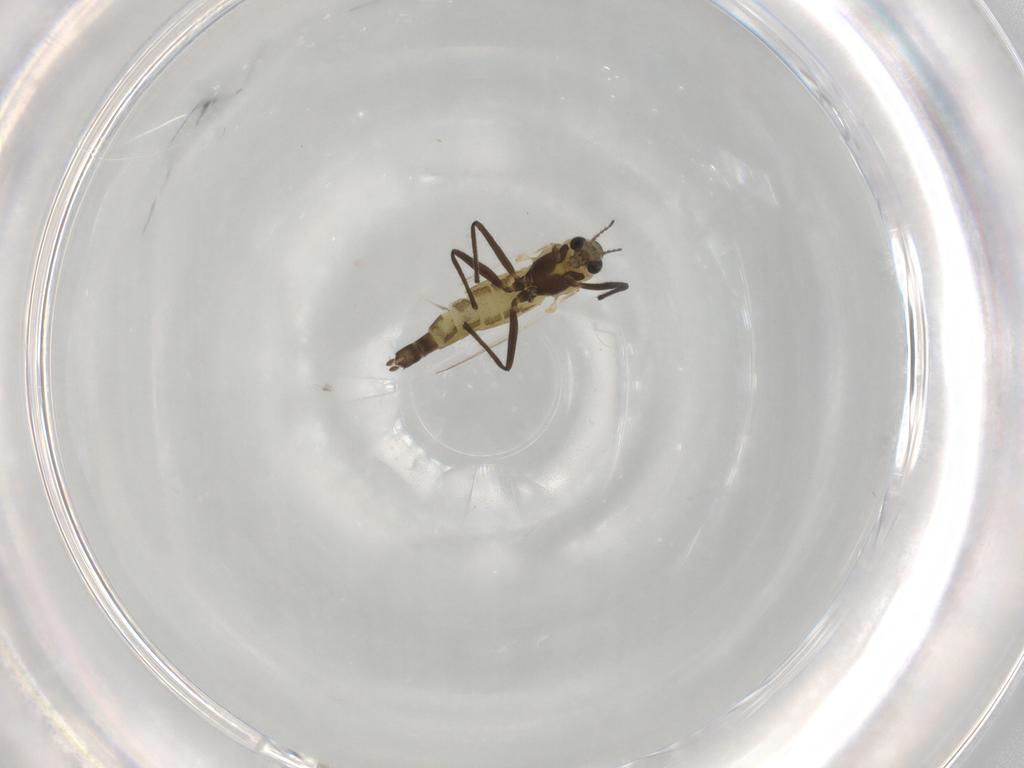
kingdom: Animalia
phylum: Arthropoda
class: Insecta
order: Diptera
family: Chironomidae
